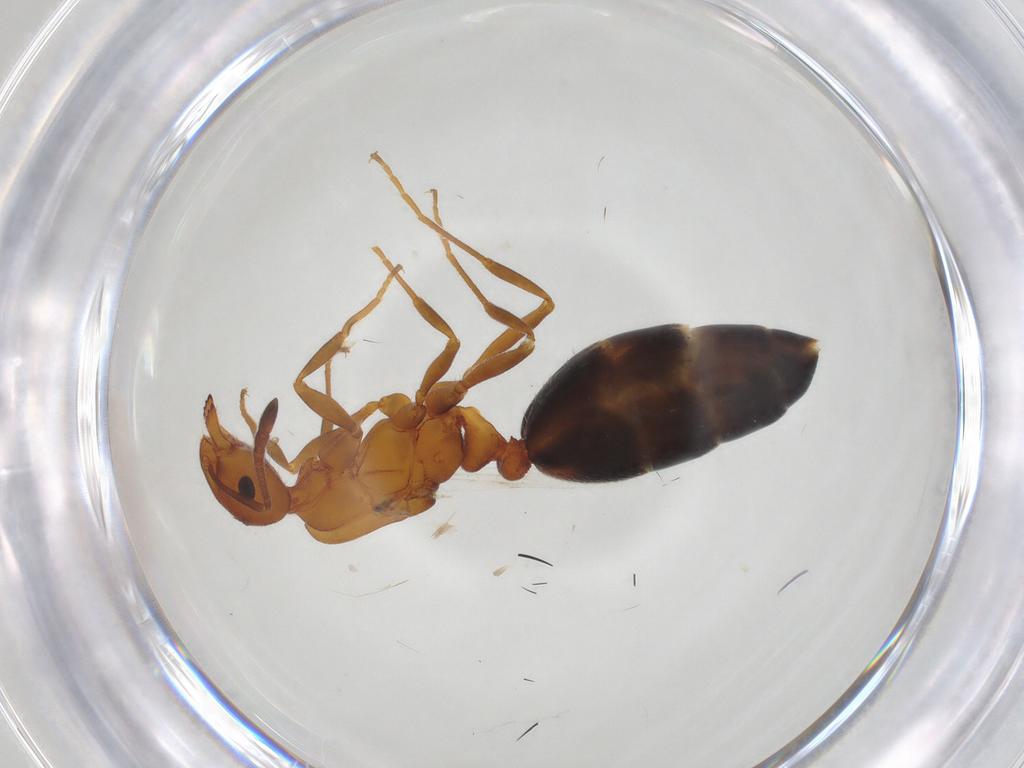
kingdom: Animalia
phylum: Arthropoda
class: Insecta
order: Hymenoptera
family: Formicidae
